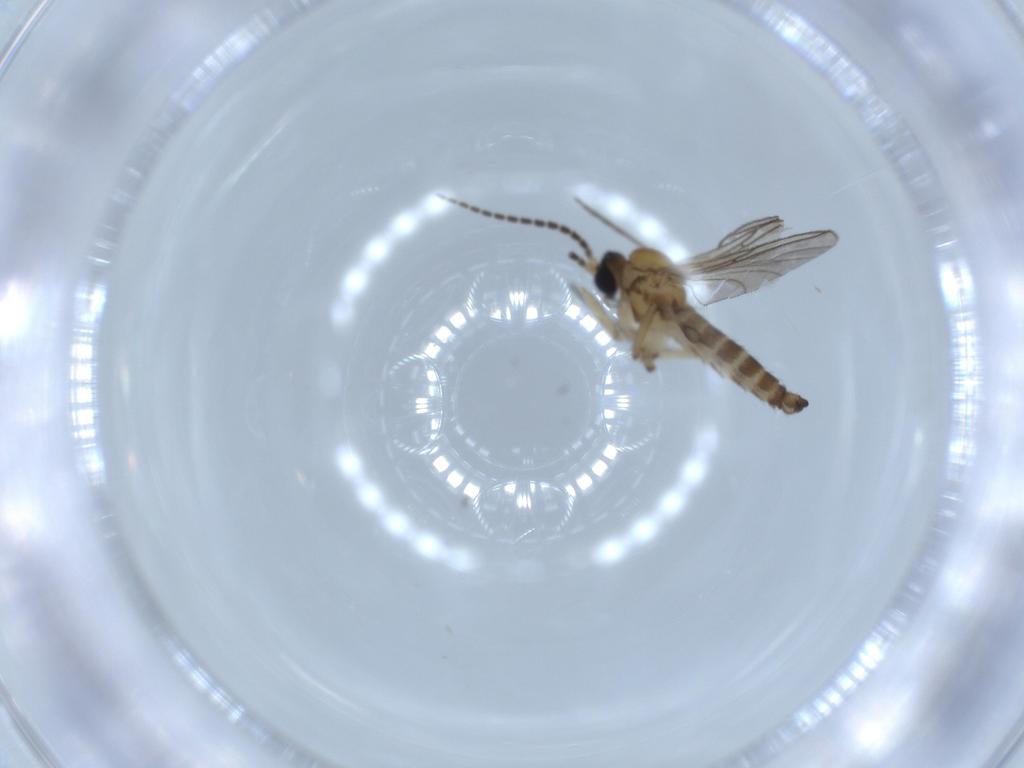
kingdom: Animalia
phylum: Arthropoda
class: Insecta
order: Diptera
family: Sciaridae
